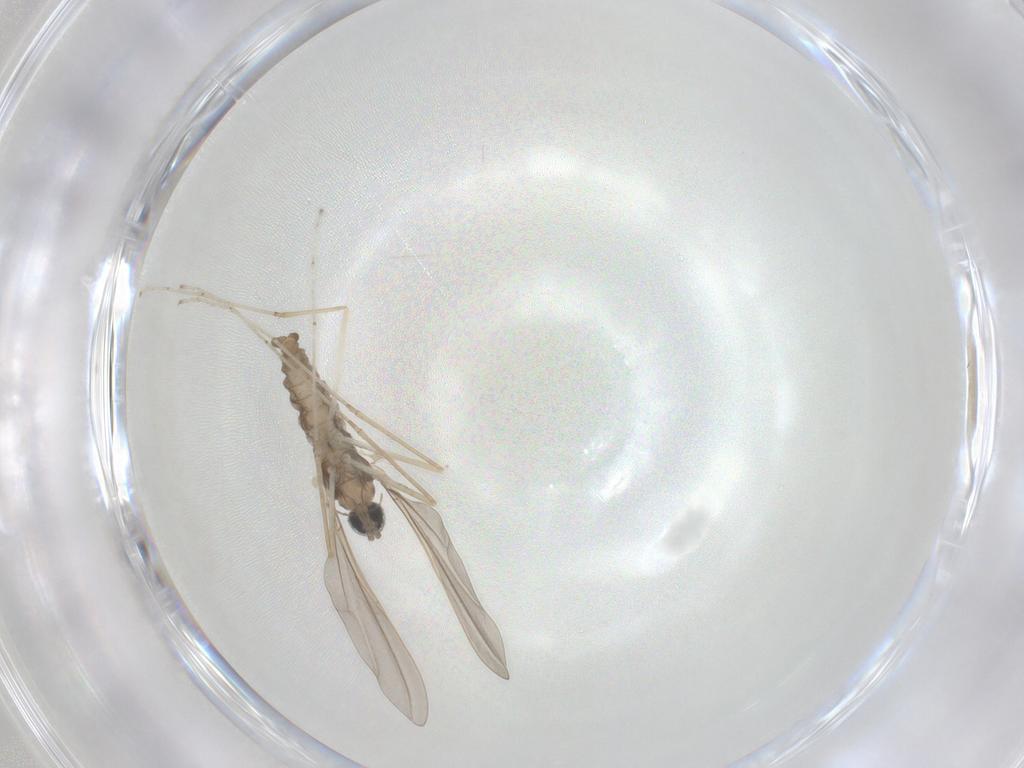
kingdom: Animalia
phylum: Arthropoda
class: Insecta
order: Diptera
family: Cecidomyiidae
